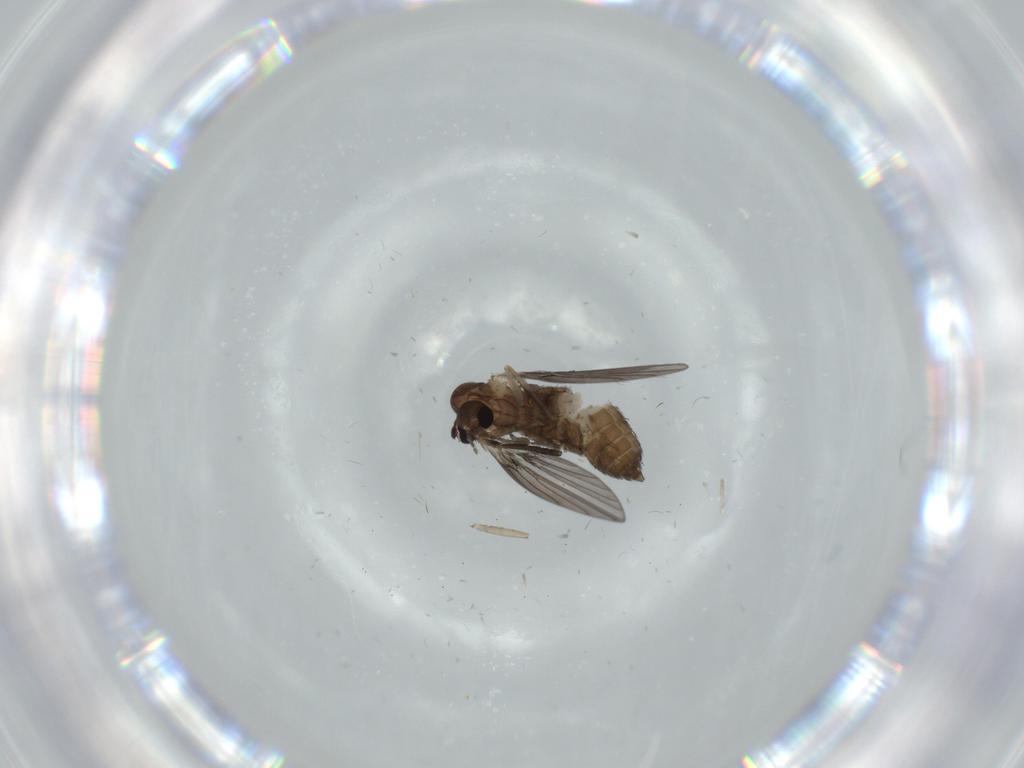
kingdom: Animalia
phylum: Arthropoda
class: Insecta
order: Diptera
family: Psychodidae
